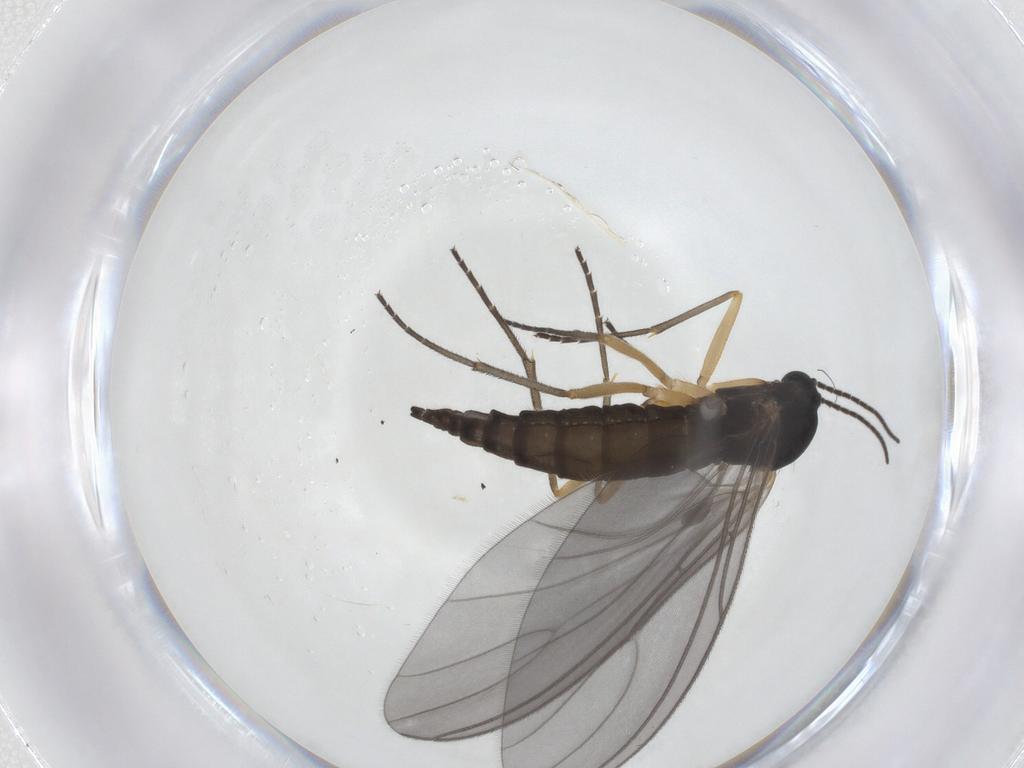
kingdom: Animalia
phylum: Arthropoda
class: Insecta
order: Diptera
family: Sciaridae
